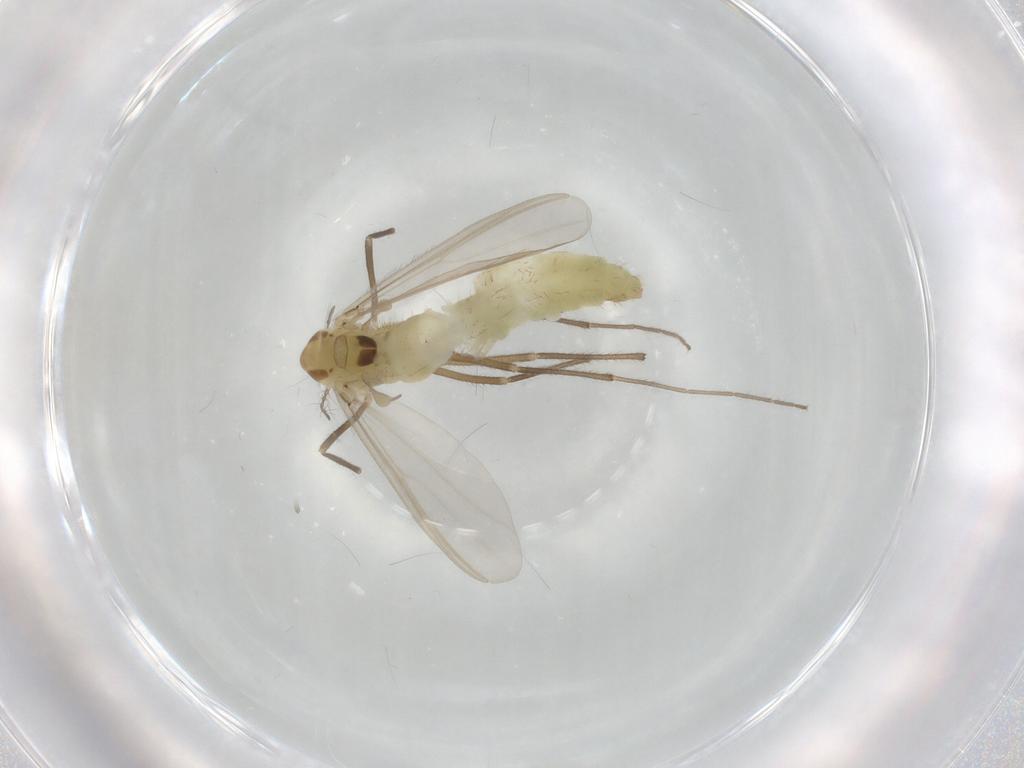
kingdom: Animalia
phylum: Arthropoda
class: Insecta
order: Diptera
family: Chironomidae
